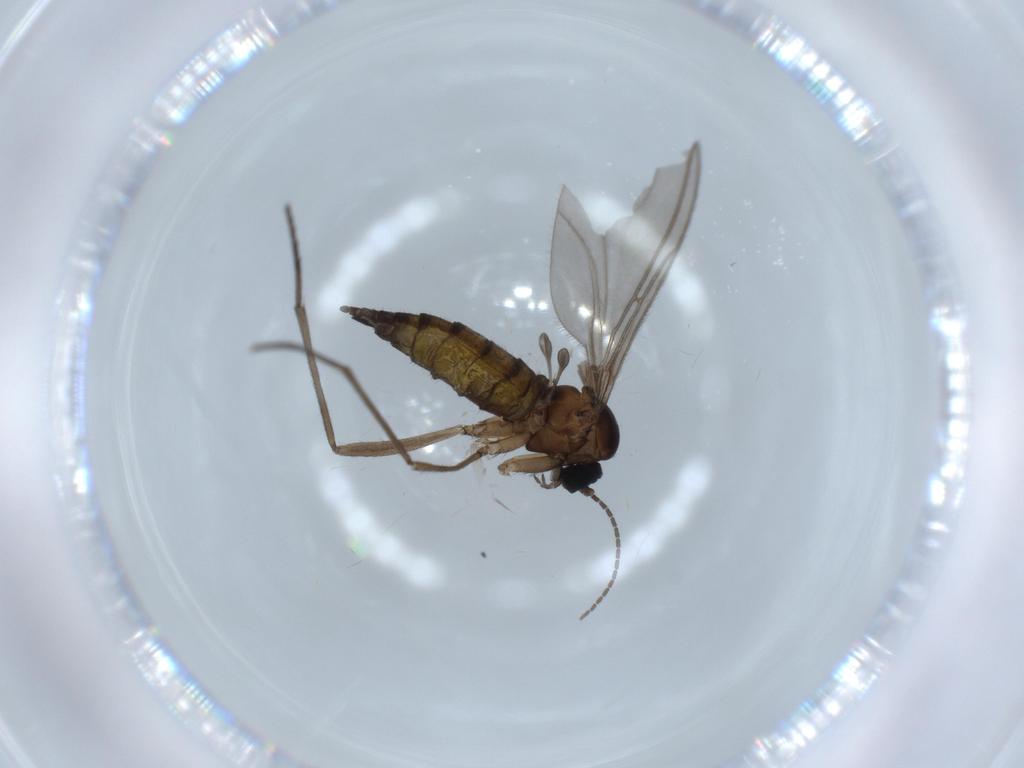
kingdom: Animalia
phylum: Arthropoda
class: Insecta
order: Diptera
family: Sciaridae
